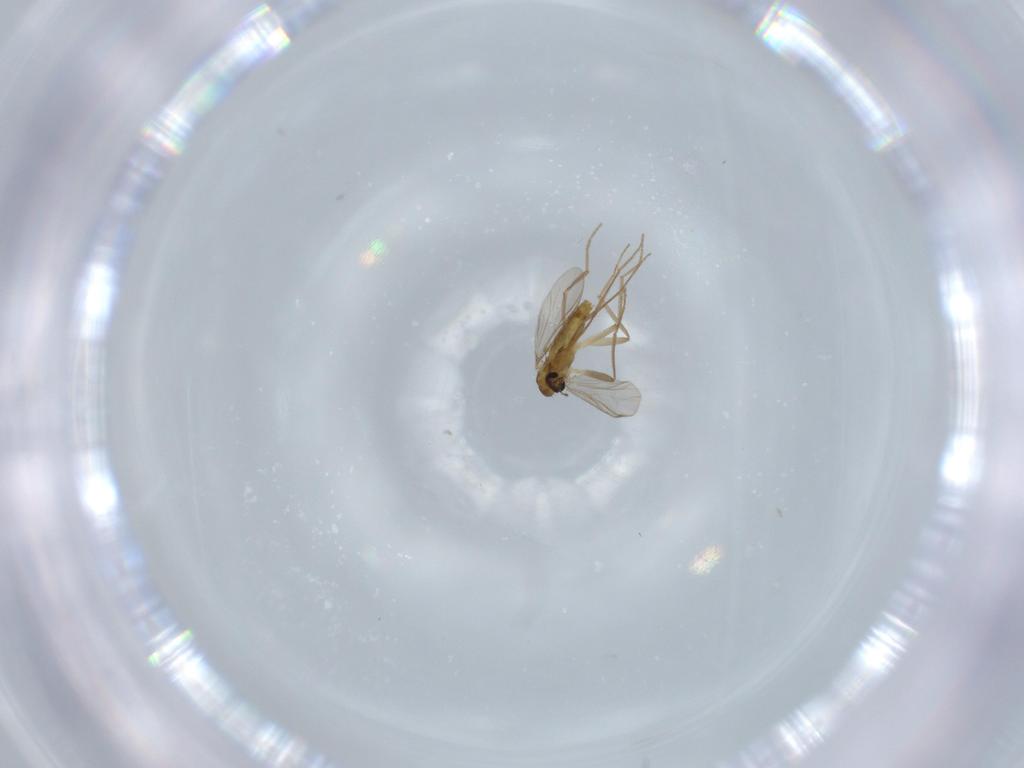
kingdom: Animalia
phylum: Arthropoda
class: Insecta
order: Diptera
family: Chironomidae
